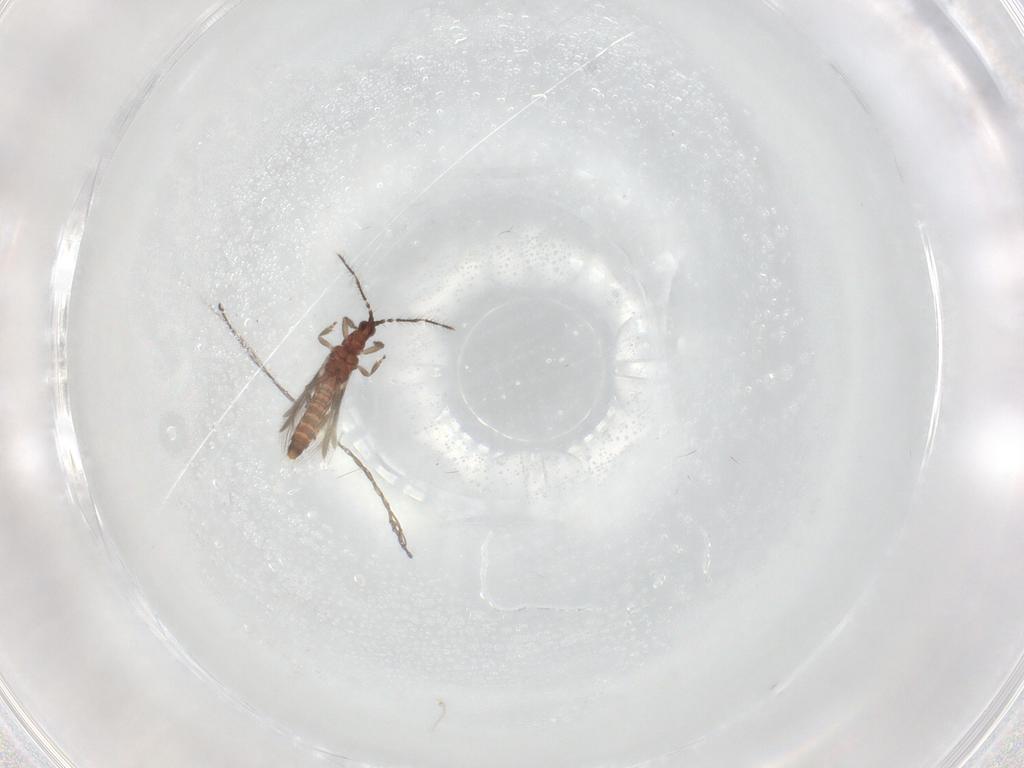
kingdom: Animalia
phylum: Arthropoda
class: Insecta
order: Thysanoptera
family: Thripidae
